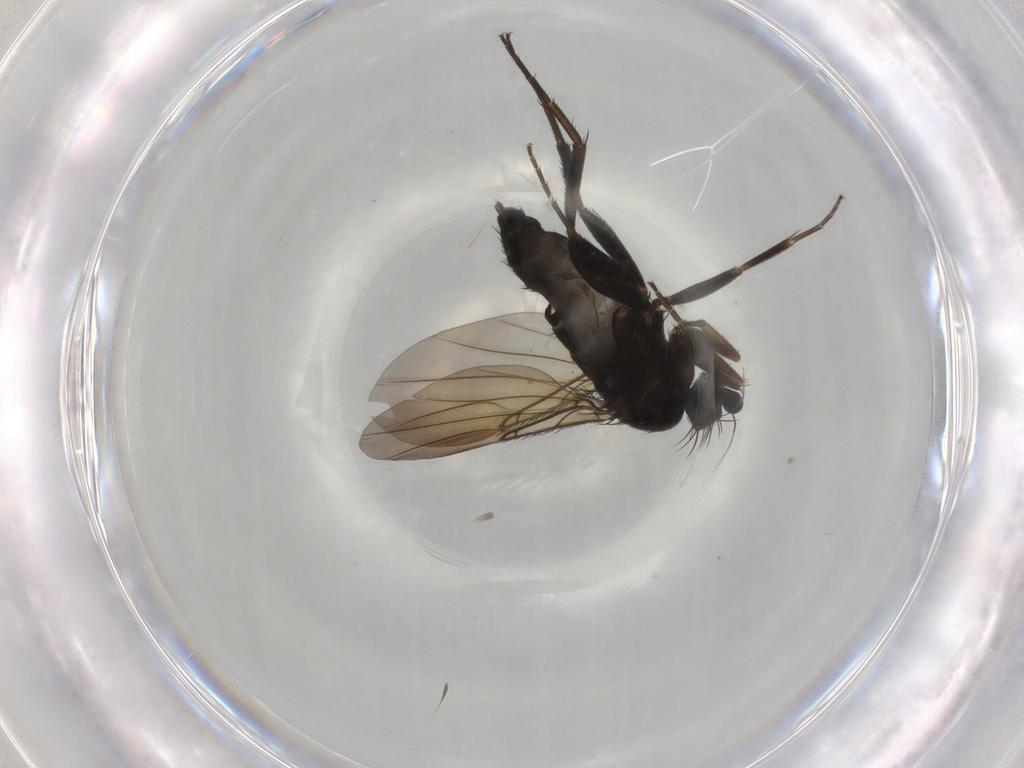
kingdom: Animalia
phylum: Arthropoda
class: Insecta
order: Diptera
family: Phoridae
